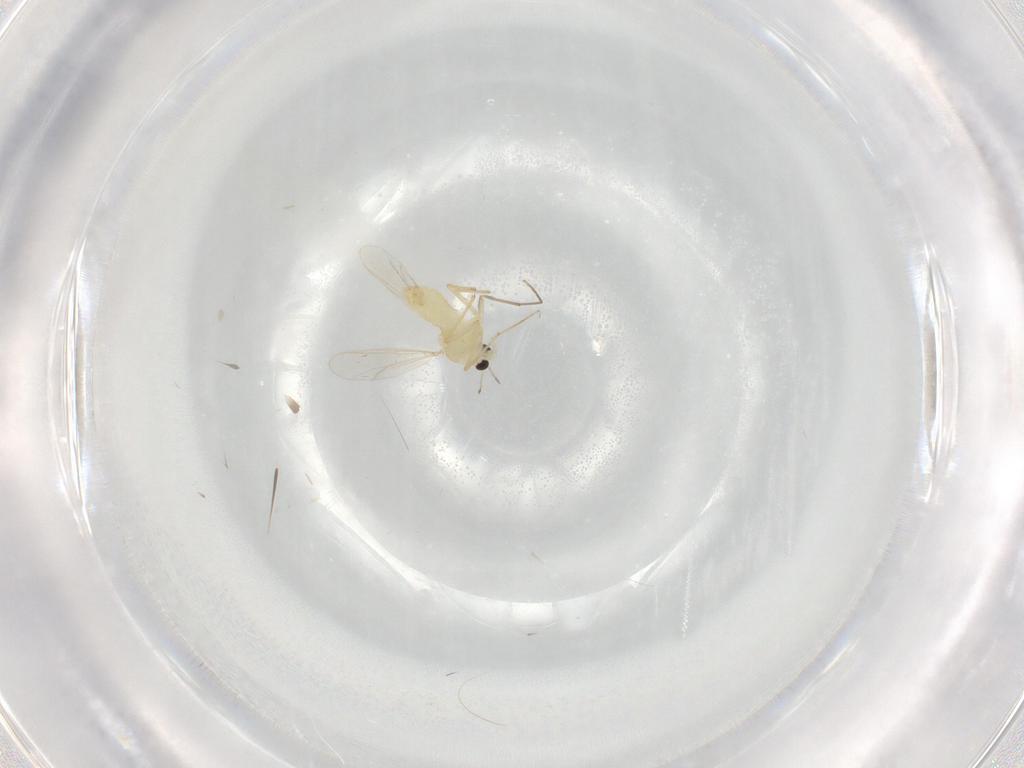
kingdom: Animalia
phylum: Arthropoda
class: Insecta
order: Diptera
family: Chironomidae
